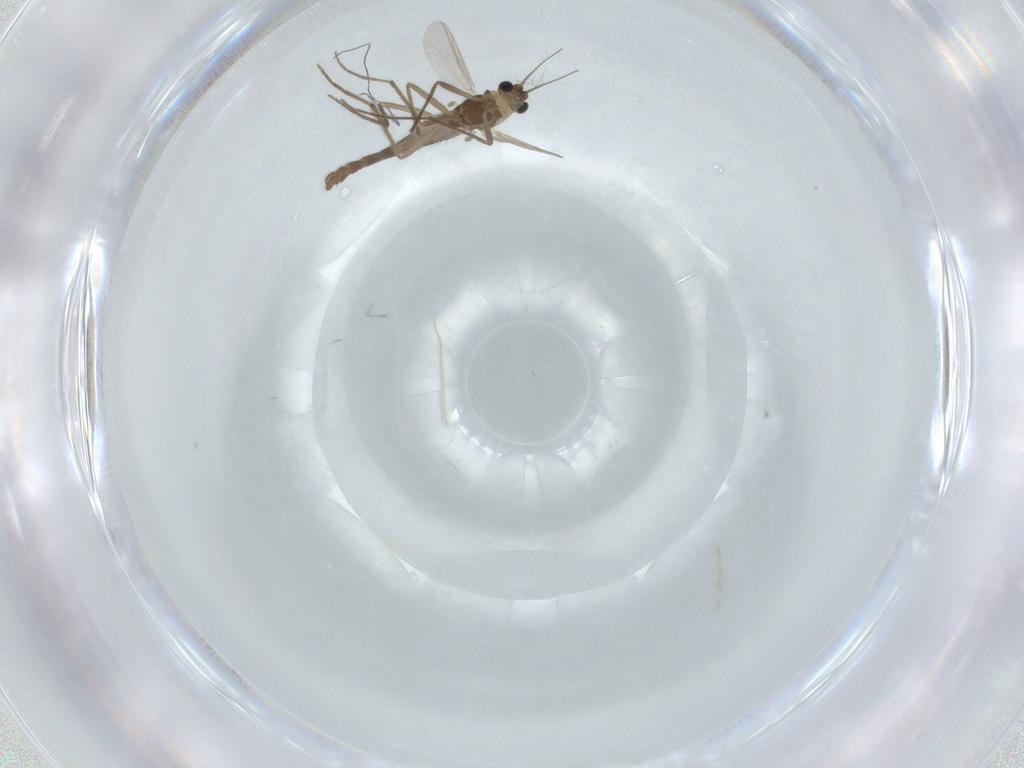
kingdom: Animalia
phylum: Arthropoda
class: Insecta
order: Diptera
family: Chironomidae
